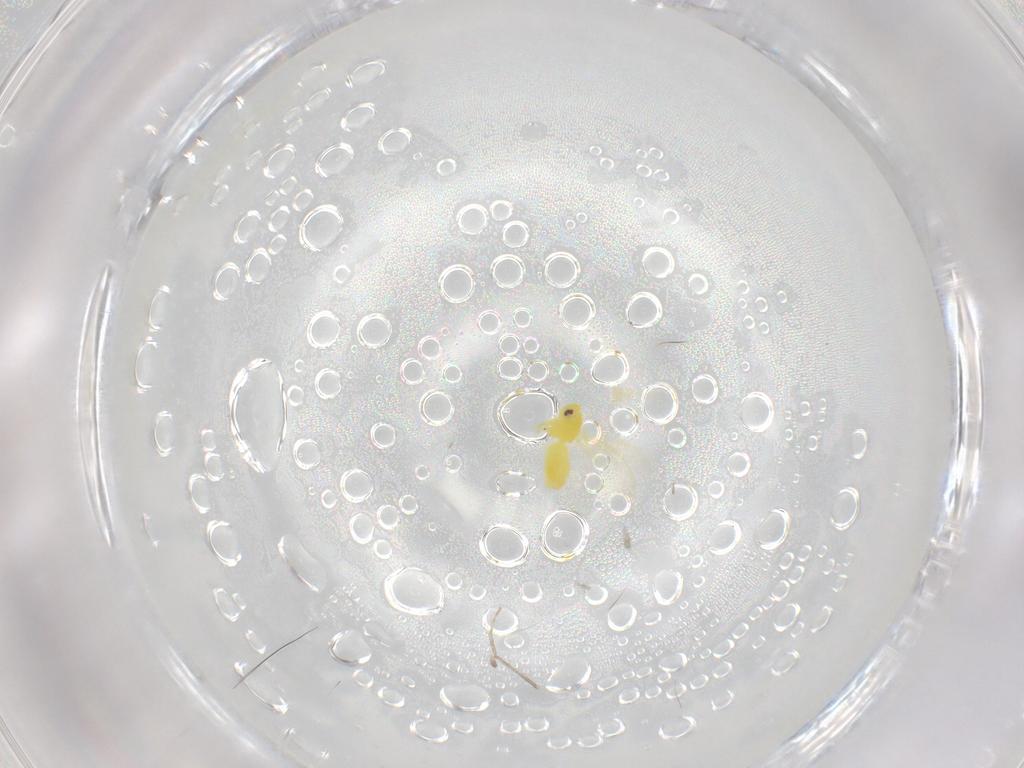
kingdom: Animalia
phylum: Arthropoda
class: Insecta
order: Hemiptera
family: Aleyrodidae
